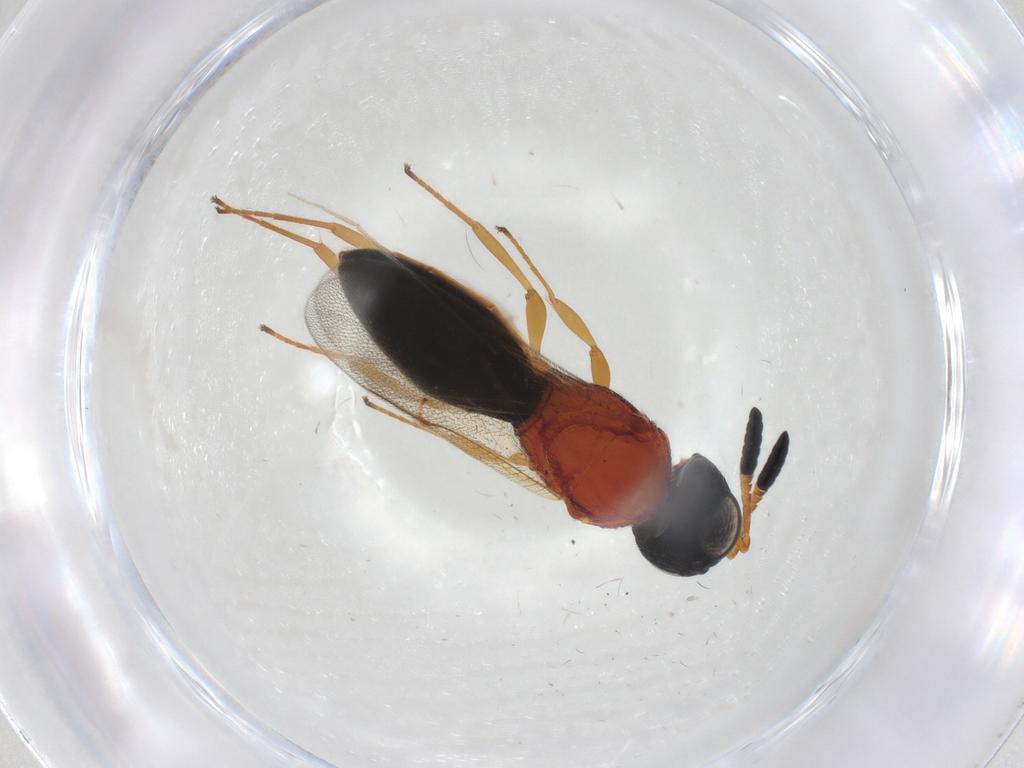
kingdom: Animalia
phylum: Arthropoda
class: Insecta
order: Hymenoptera
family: Scelionidae
